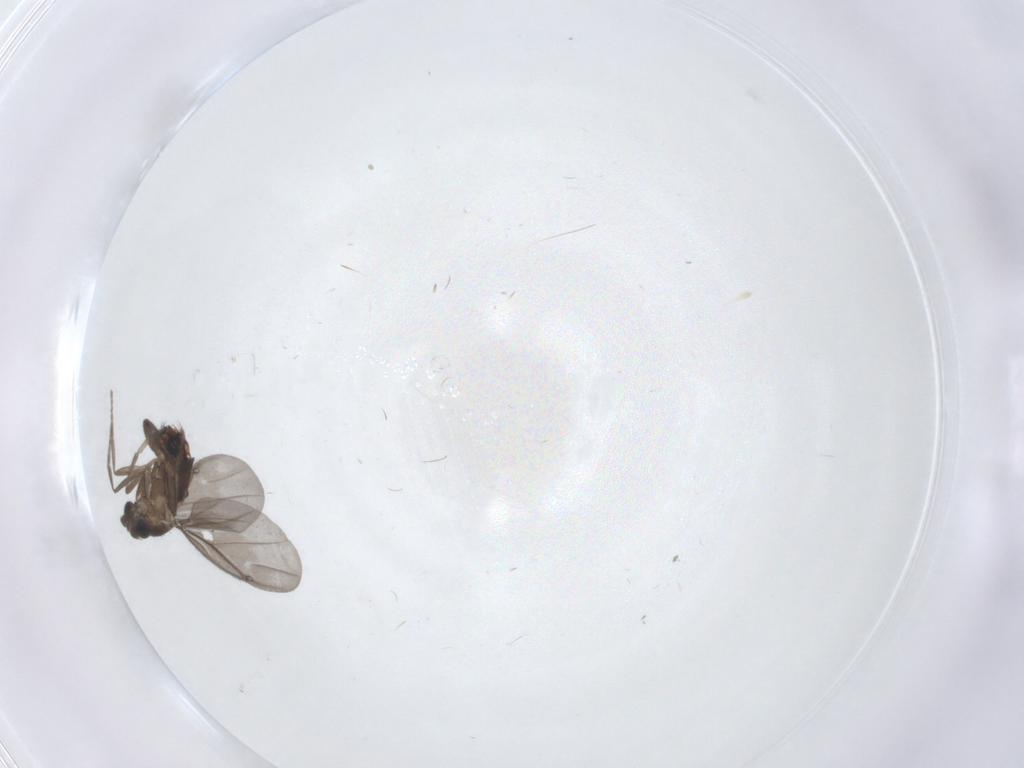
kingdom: Animalia
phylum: Arthropoda
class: Insecta
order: Diptera
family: Phoridae
